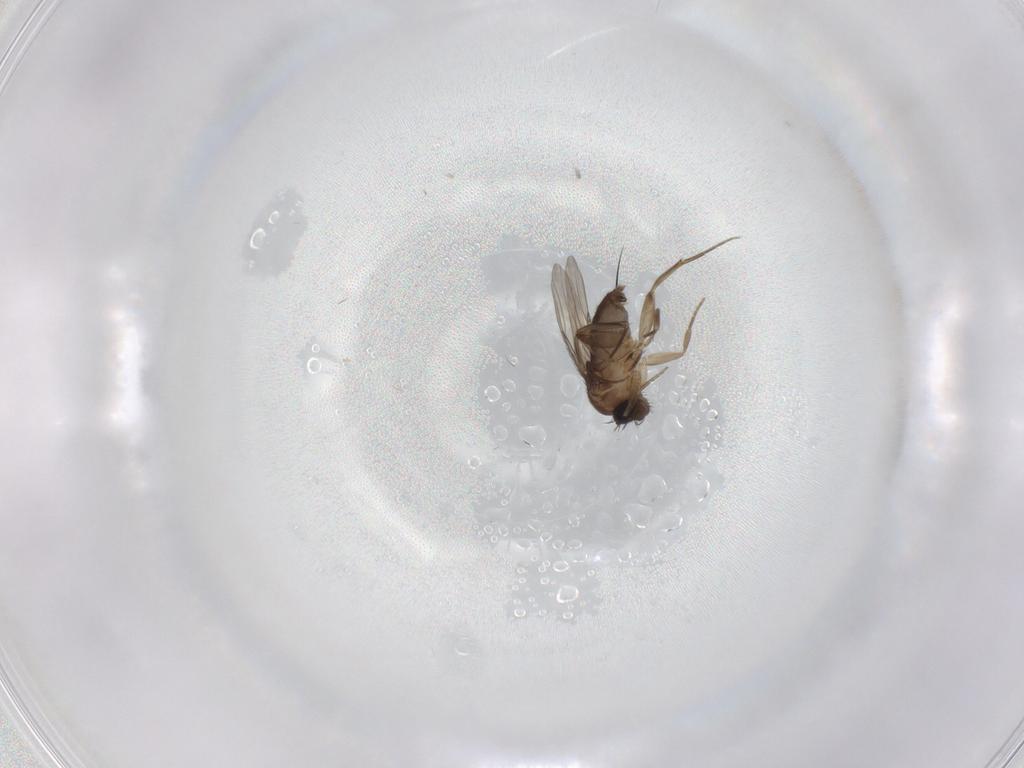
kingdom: Animalia
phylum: Arthropoda
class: Insecta
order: Diptera
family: Phoridae
